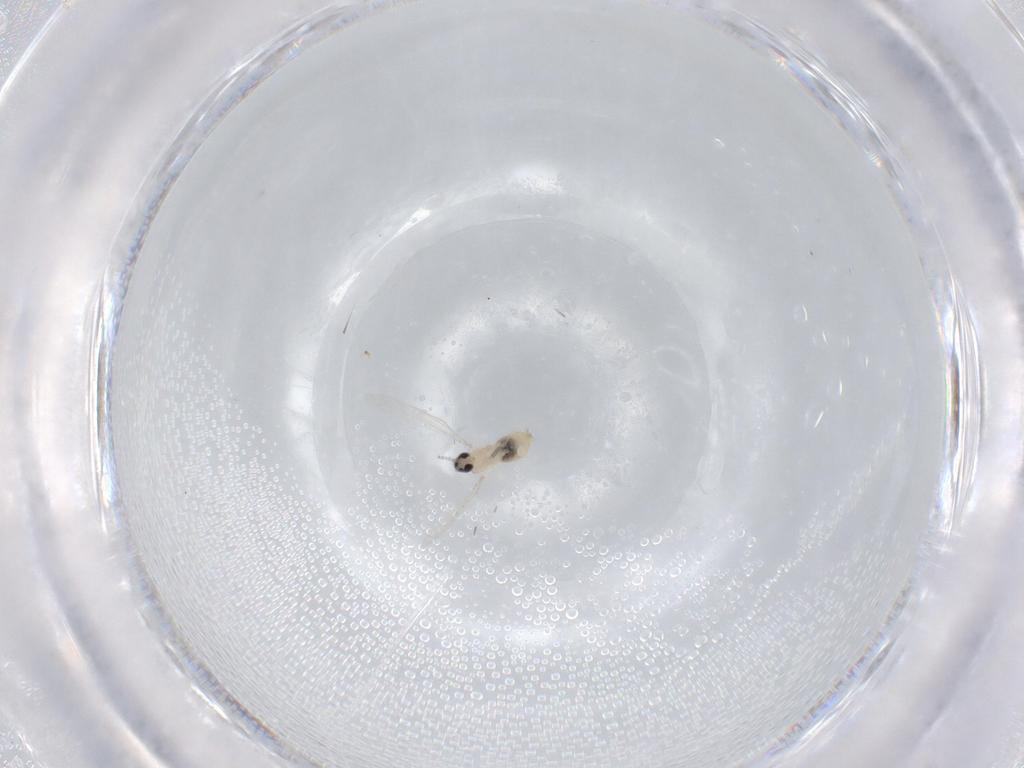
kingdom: Animalia
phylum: Arthropoda
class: Insecta
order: Diptera
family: Cecidomyiidae
